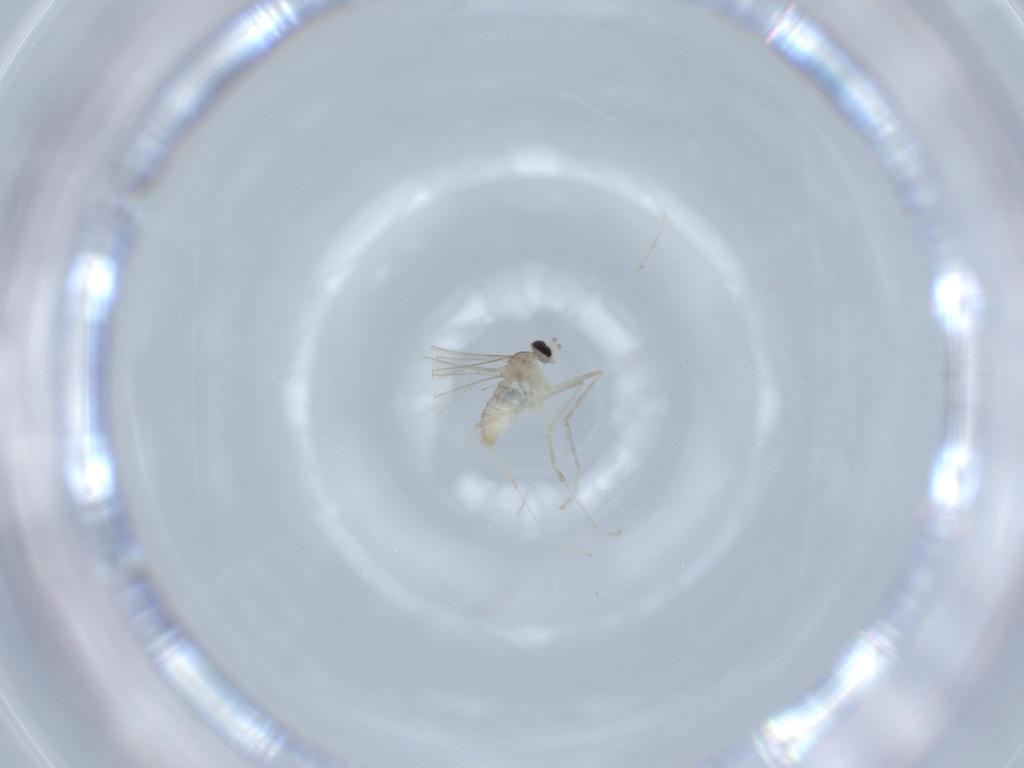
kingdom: Animalia
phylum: Arthropoda
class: Insecta
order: Diptera
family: Cecidomyiidae
